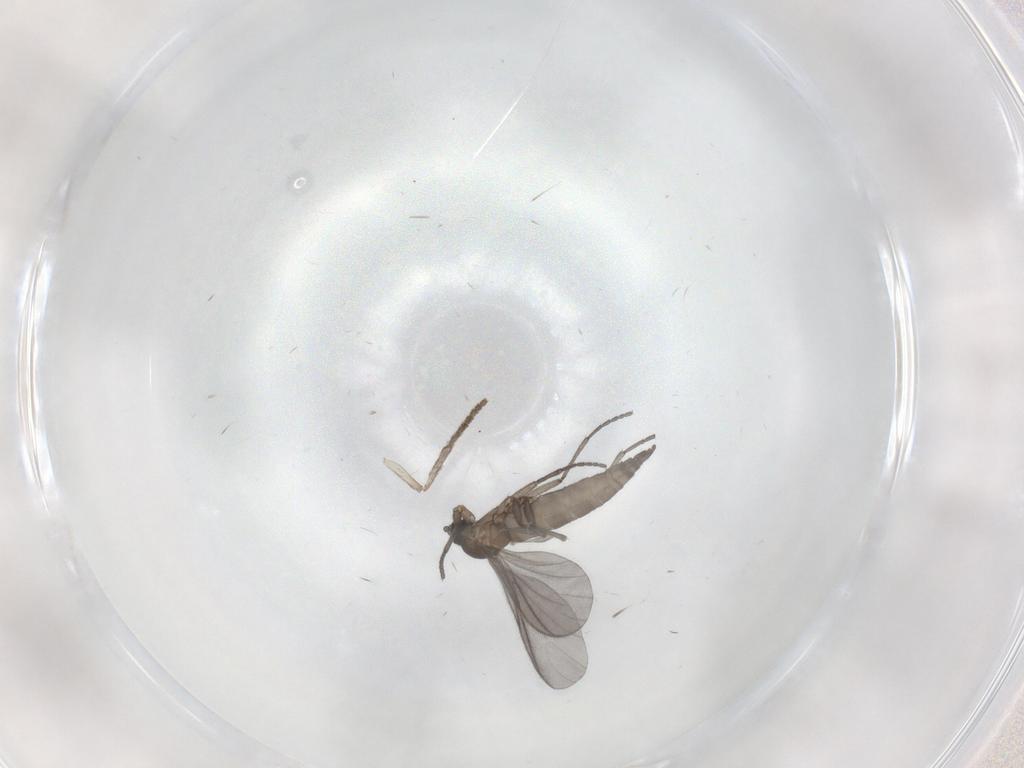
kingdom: Animalia
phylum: Arthropoda
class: Insecta
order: Diptera
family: Sciaridae
